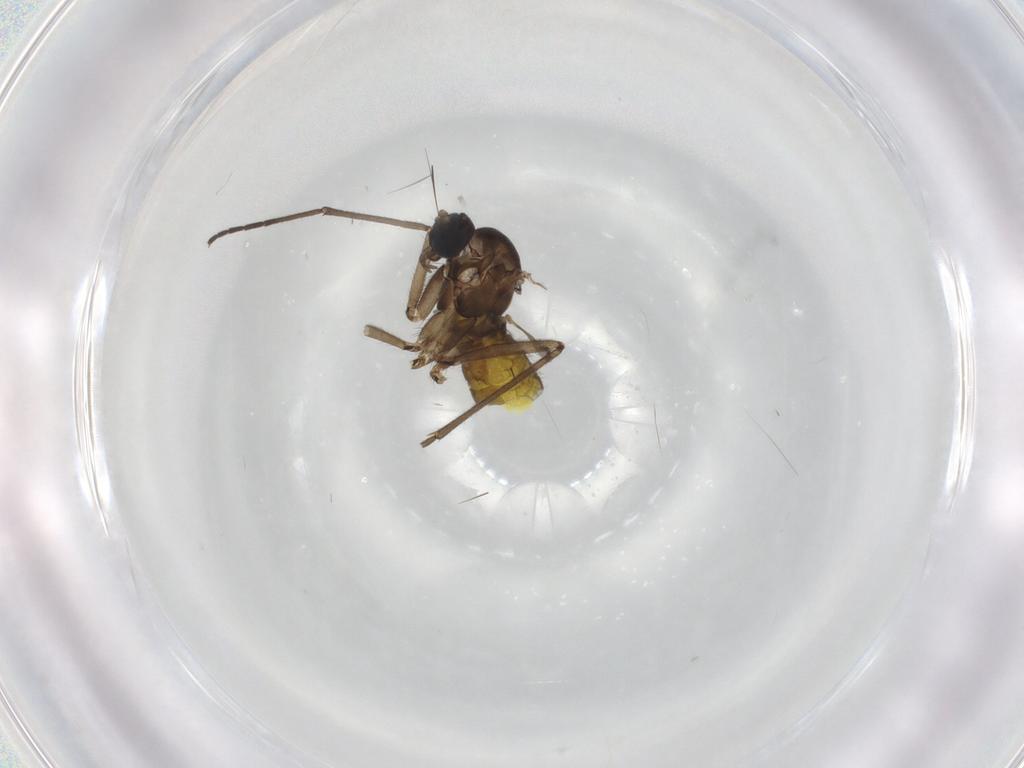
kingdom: Animalia
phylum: Arthropoda
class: Insecta
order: Diptera
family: Sciaridae
